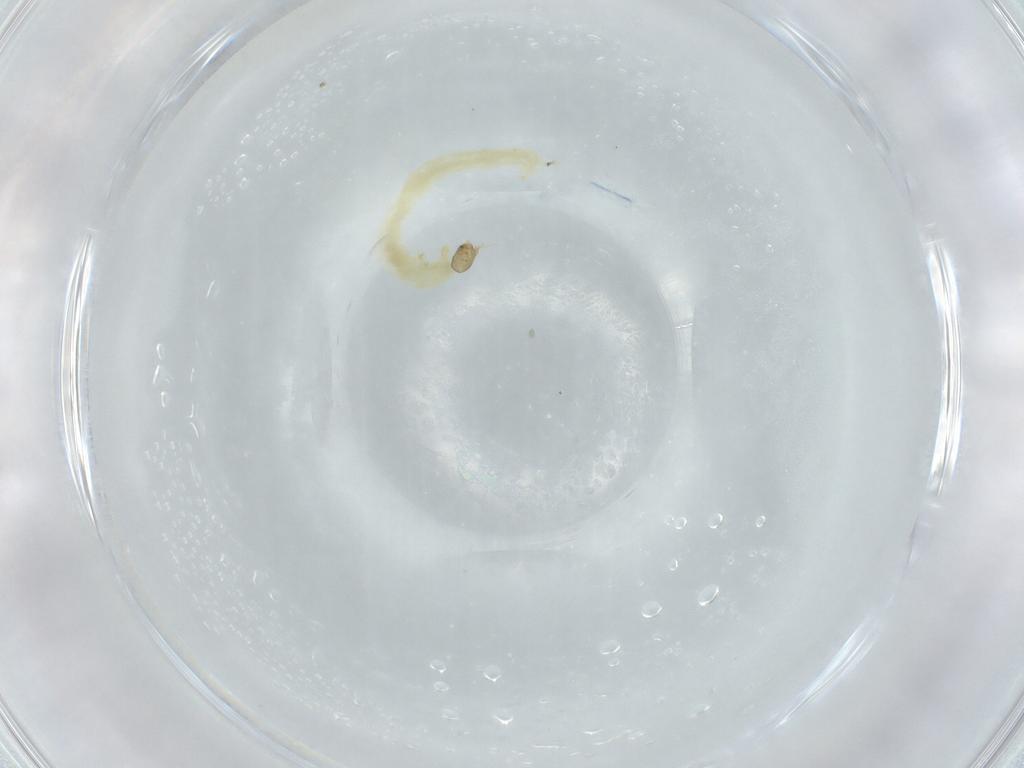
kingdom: Animalia
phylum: Arthropoda
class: Insecta
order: Diptera
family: Chironomidae
